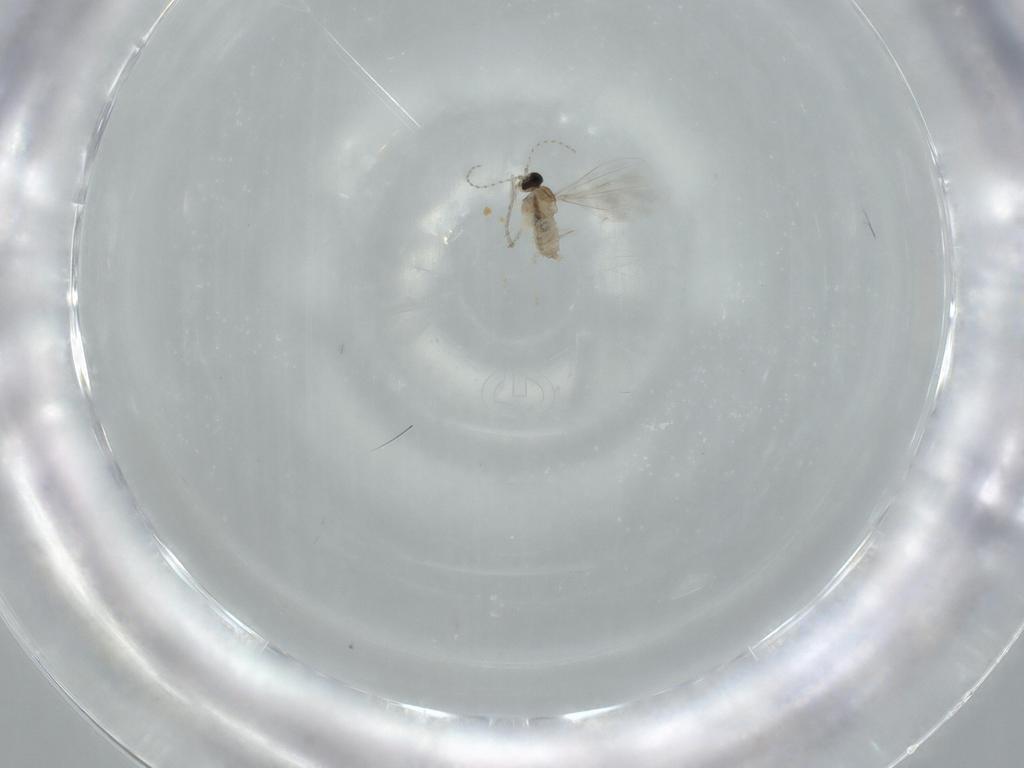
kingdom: Animalia
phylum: Arthropoda
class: Insecta
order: Diptera
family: Cecidomyiidae
